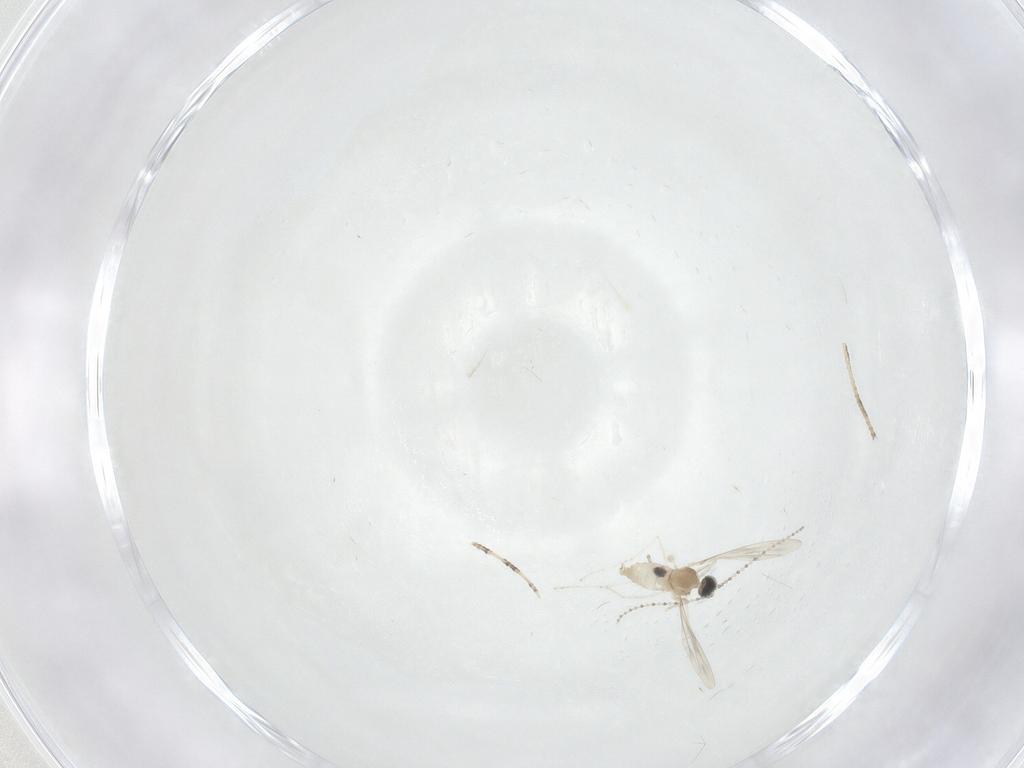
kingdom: Animalia
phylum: Arthropoda
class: Insecta
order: Diptera
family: Cecidomyiidae
